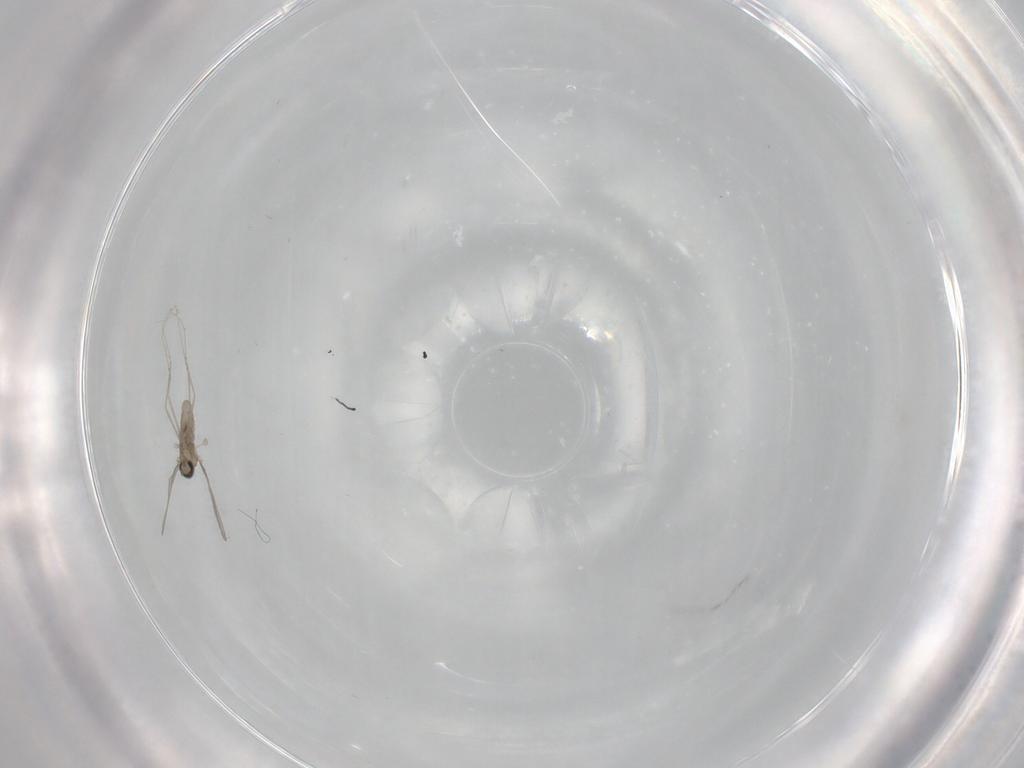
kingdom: Animalia
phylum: Arthropoda
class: Insecta
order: Diptera
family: Cecidomyiidae
